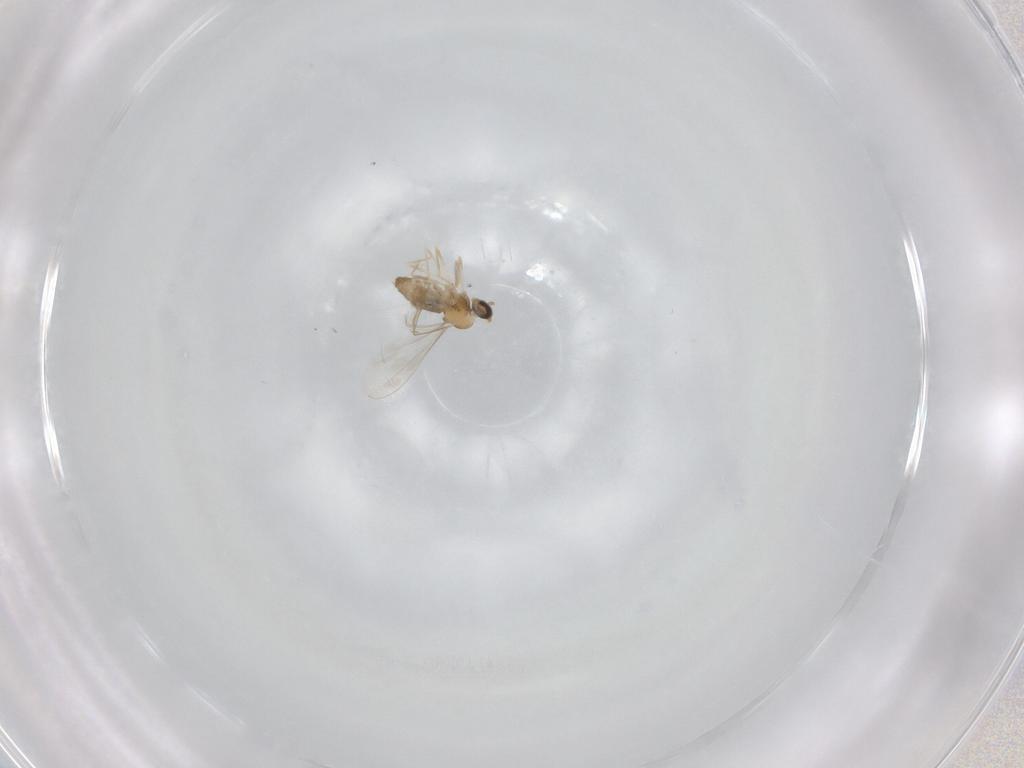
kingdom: Animalia
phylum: Arthropoda
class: Insecta
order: Diptera
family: Cecidomyiidae
